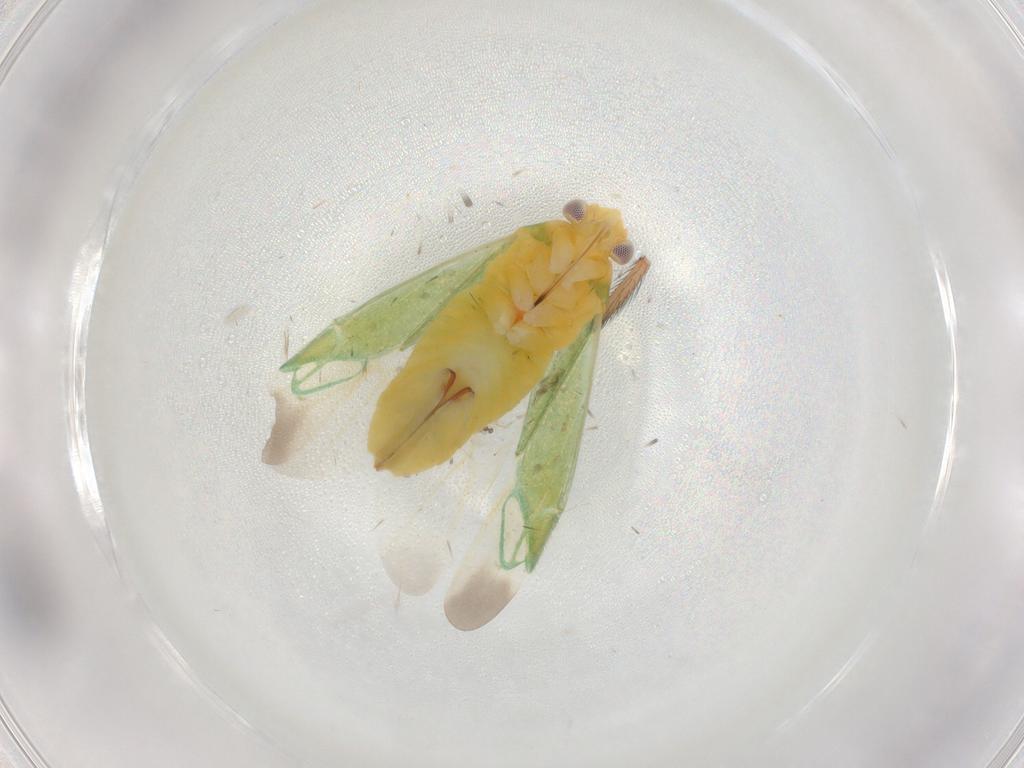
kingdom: Animalia
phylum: Arthropoda
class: Insecta
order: Hemiptera
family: Miridae
